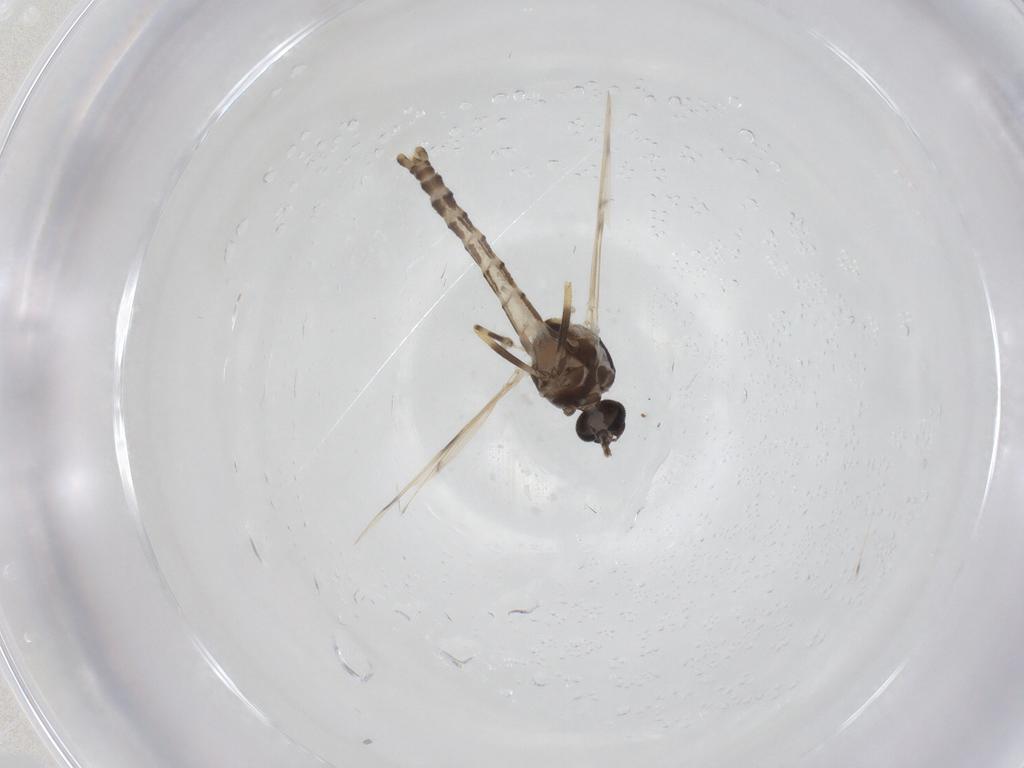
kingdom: Animalia
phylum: Arthropoda
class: Insecta
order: Diptera
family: Ceratopogonidae
